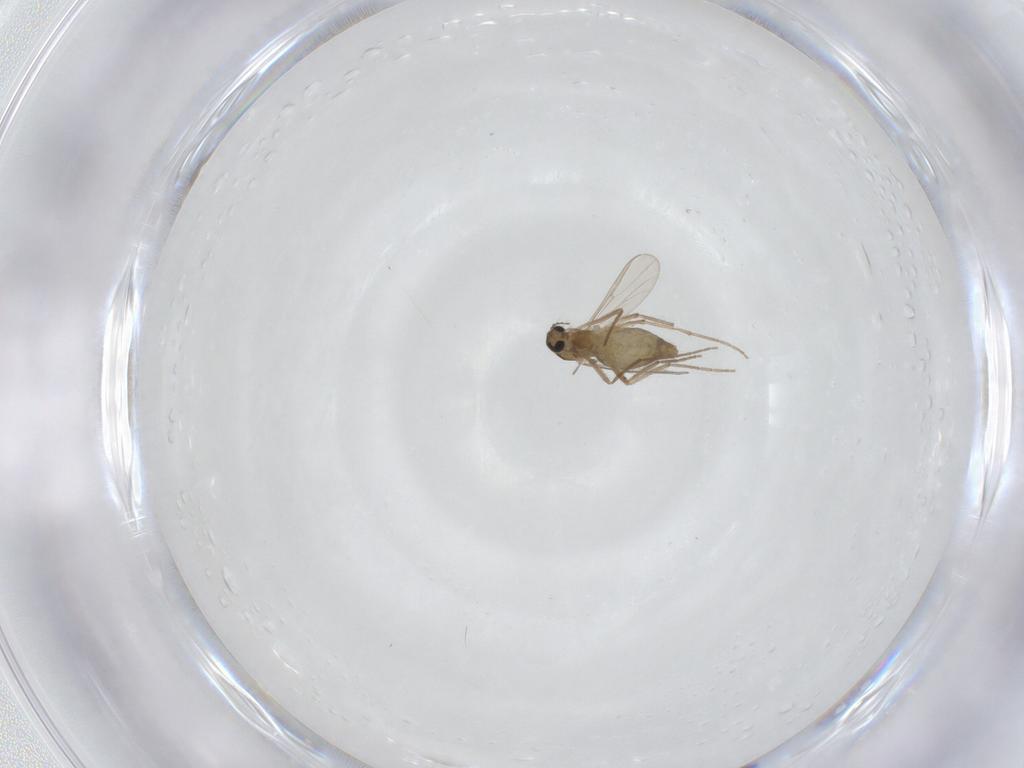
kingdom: Animalia
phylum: Arthropoda
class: Insecta
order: Diptera
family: Chironomidae
